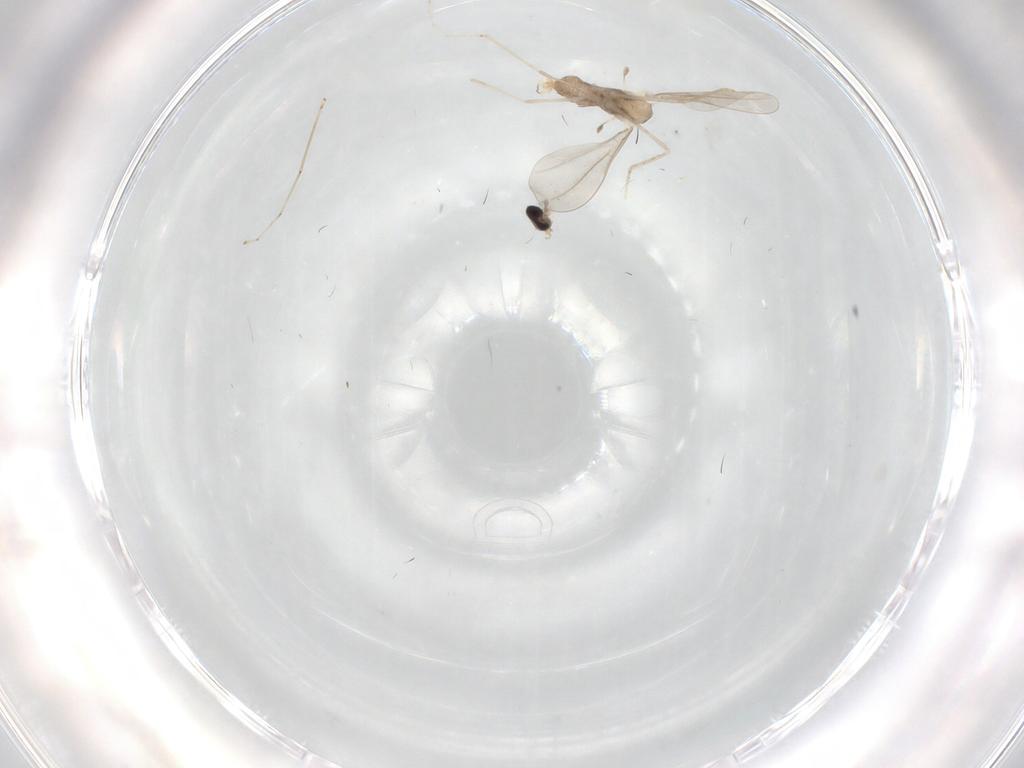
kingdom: Animalia
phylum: Arthropoda
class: Insecta
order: Diptera
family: Cecidomyiidae
